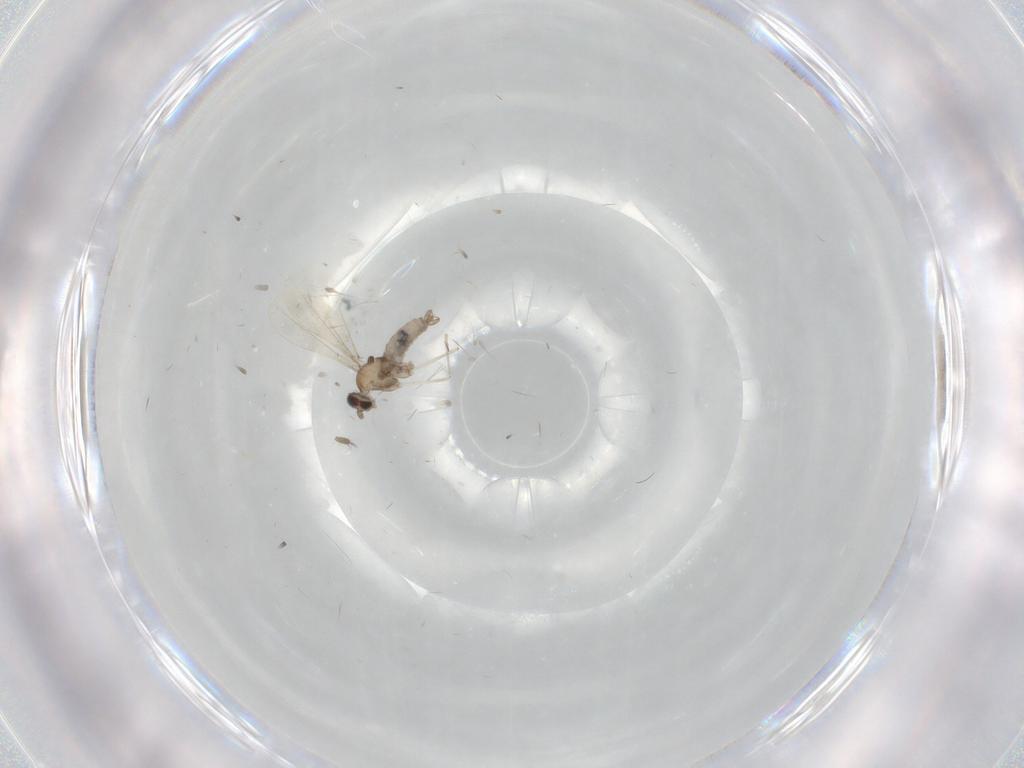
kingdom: Animalia
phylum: Arthropoda
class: Insecta
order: Diptera
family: Cecidomyiidae
